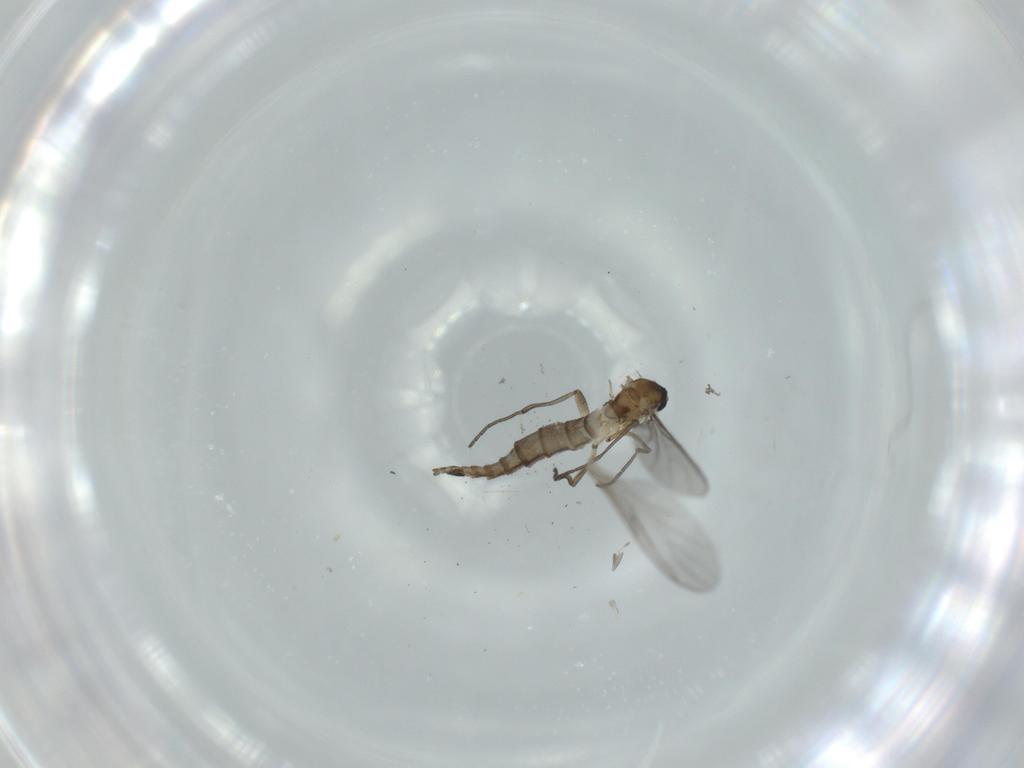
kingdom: Animalia
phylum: Arthropoda
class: Insecta
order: Diptera
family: Sciaridae
